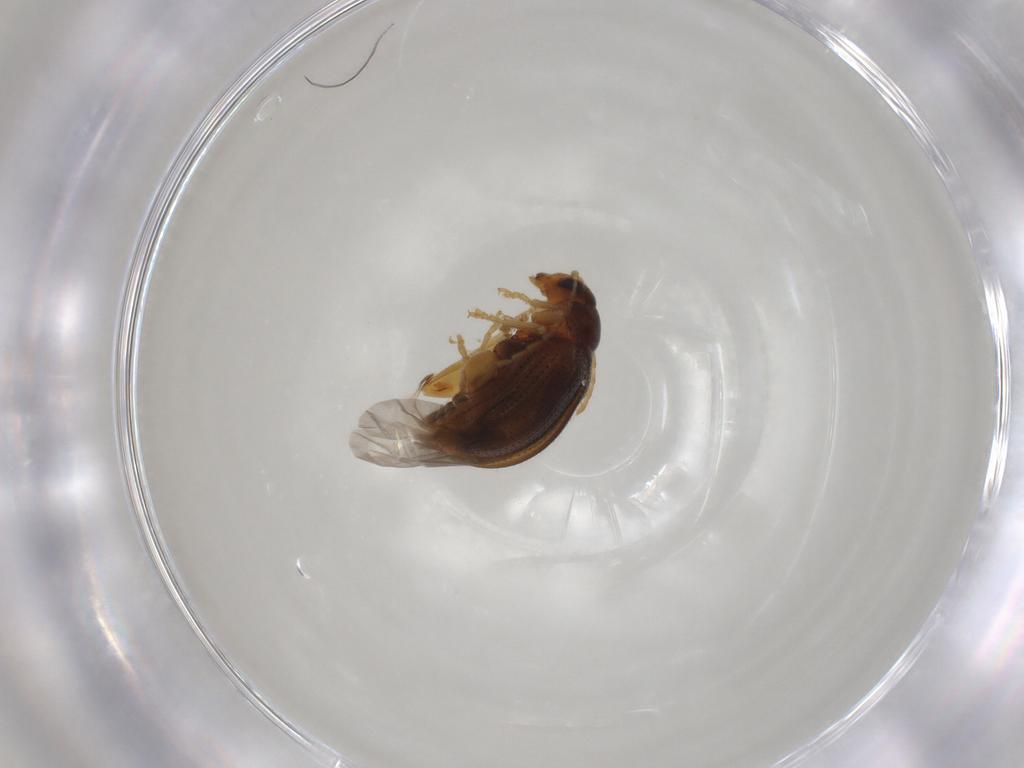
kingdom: Animalia
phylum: Arthropoda
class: Insecta
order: Coleoptera
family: Chrysomelidae
